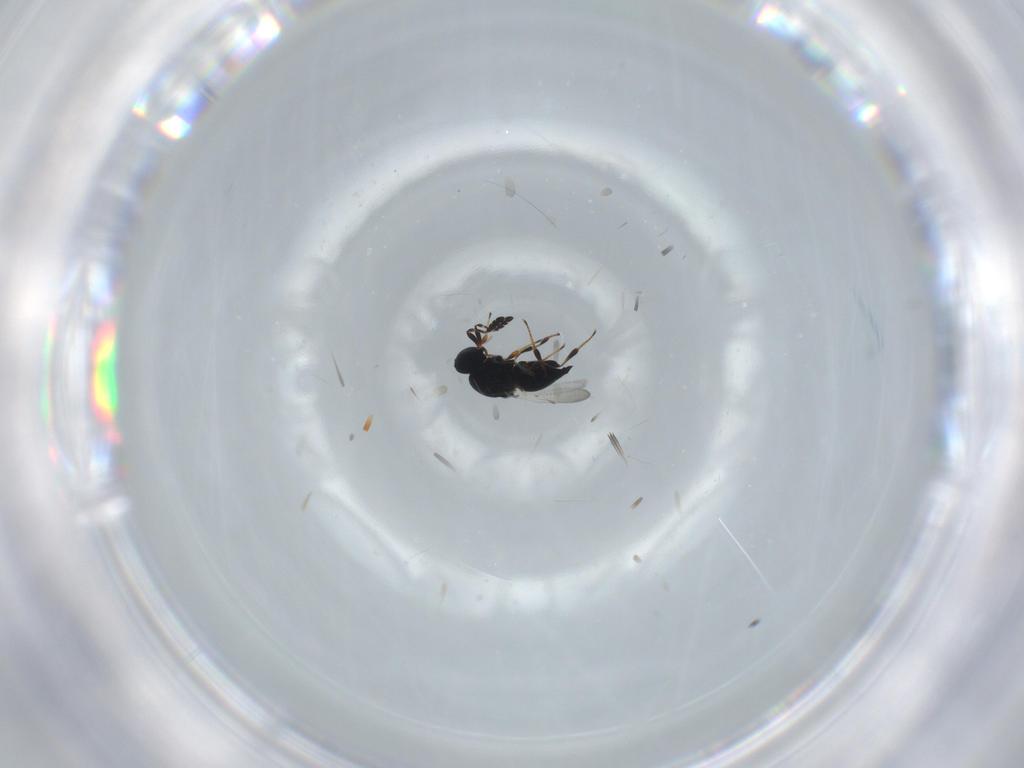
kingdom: Animalia
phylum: Arthropoda
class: Insecta
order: Hymenoptera
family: Platygastridae
